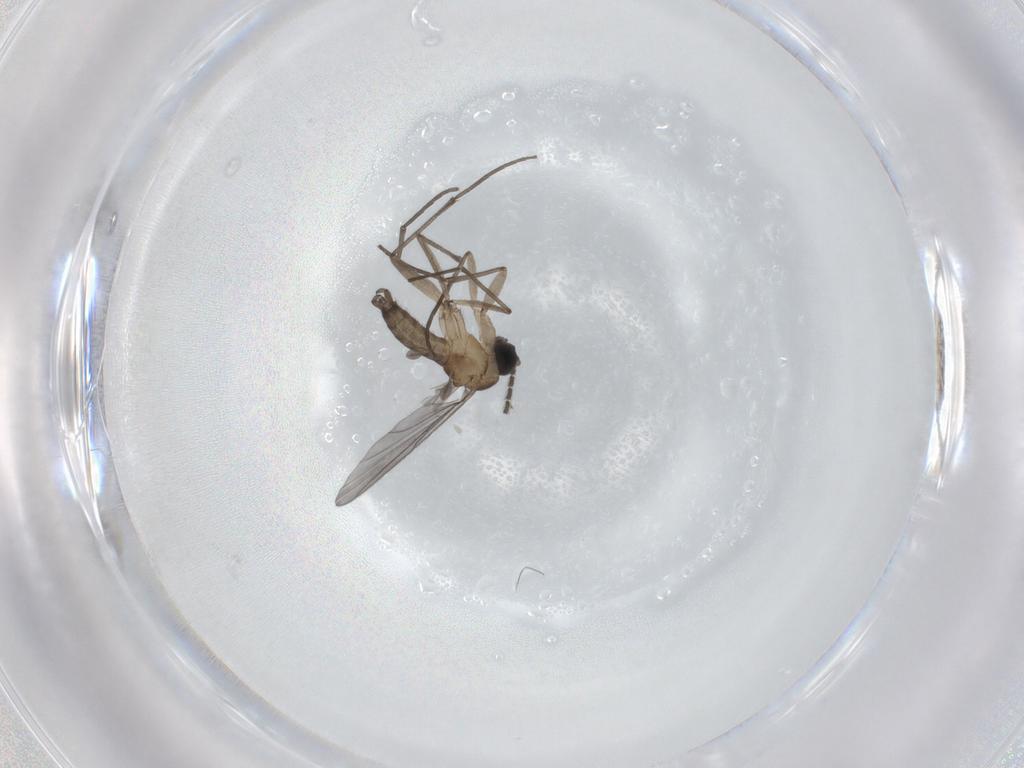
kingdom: Animalia
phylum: Arthropoda
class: Insecta
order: Diptera
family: Sciaridae
